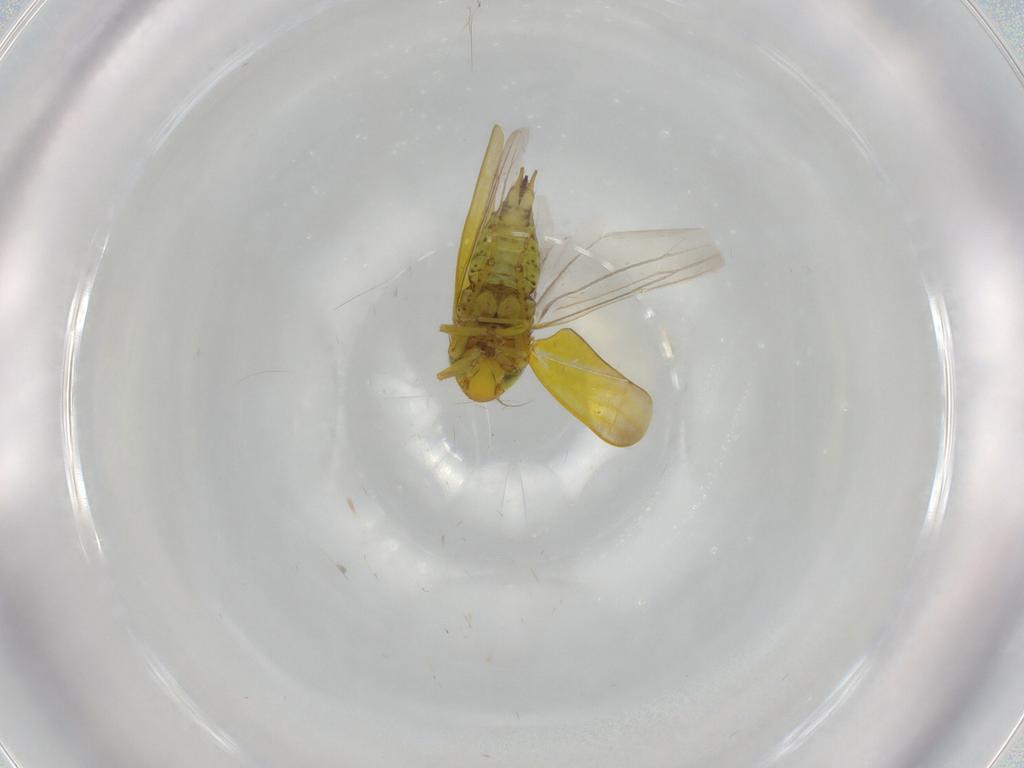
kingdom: Animalia
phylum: Arthropoda
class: Insecta
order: Hemiptera
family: Cicadellidae
